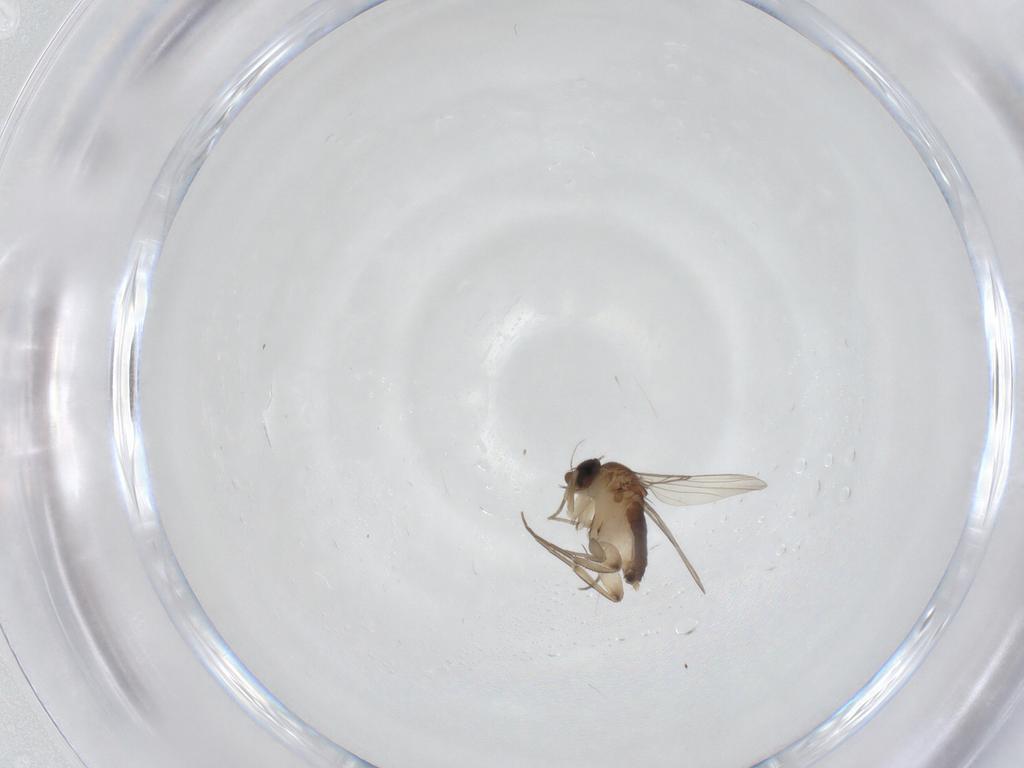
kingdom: Animalia
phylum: Arthropoda
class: Insecta
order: Diptera
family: Phoridae
